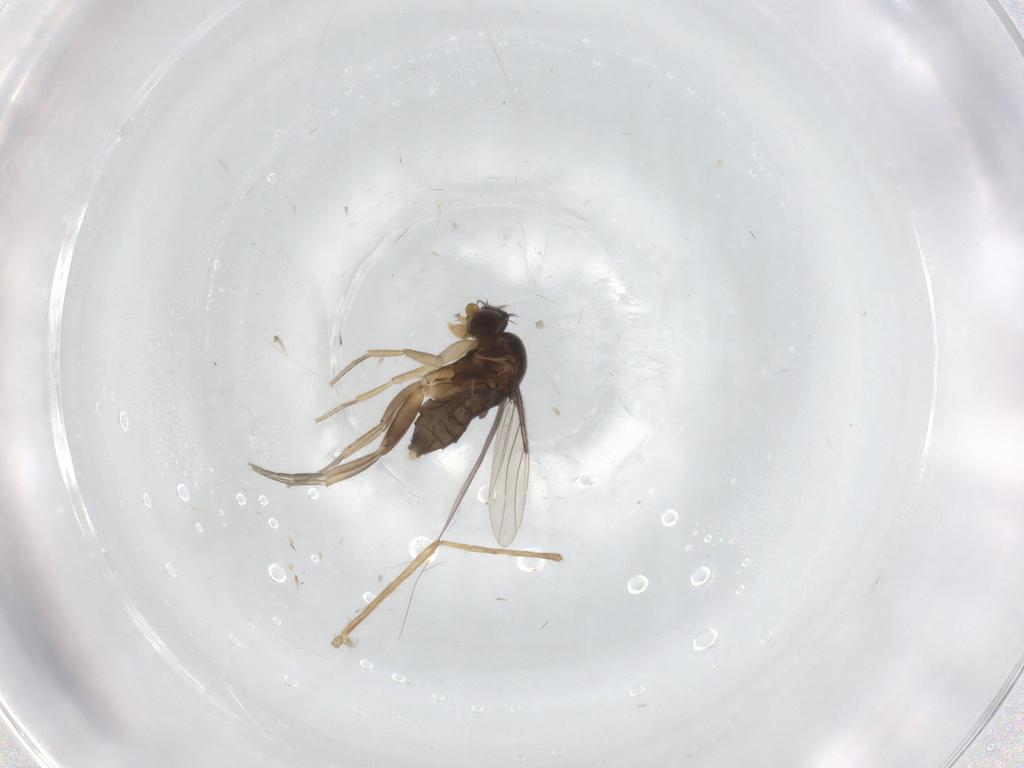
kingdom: Animalia
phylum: Arthropoda
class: Insecta
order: Diptera
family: Phoridae
